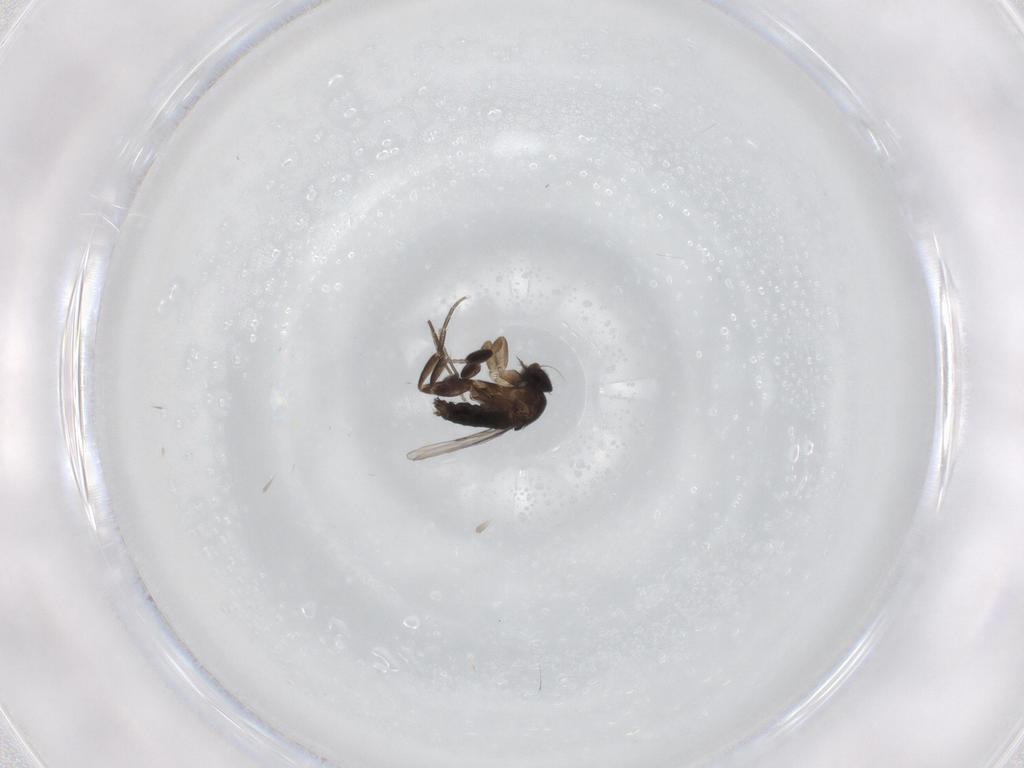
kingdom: Animalia
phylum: Arthropoda
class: Insecta
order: Diptera
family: Phoridae
